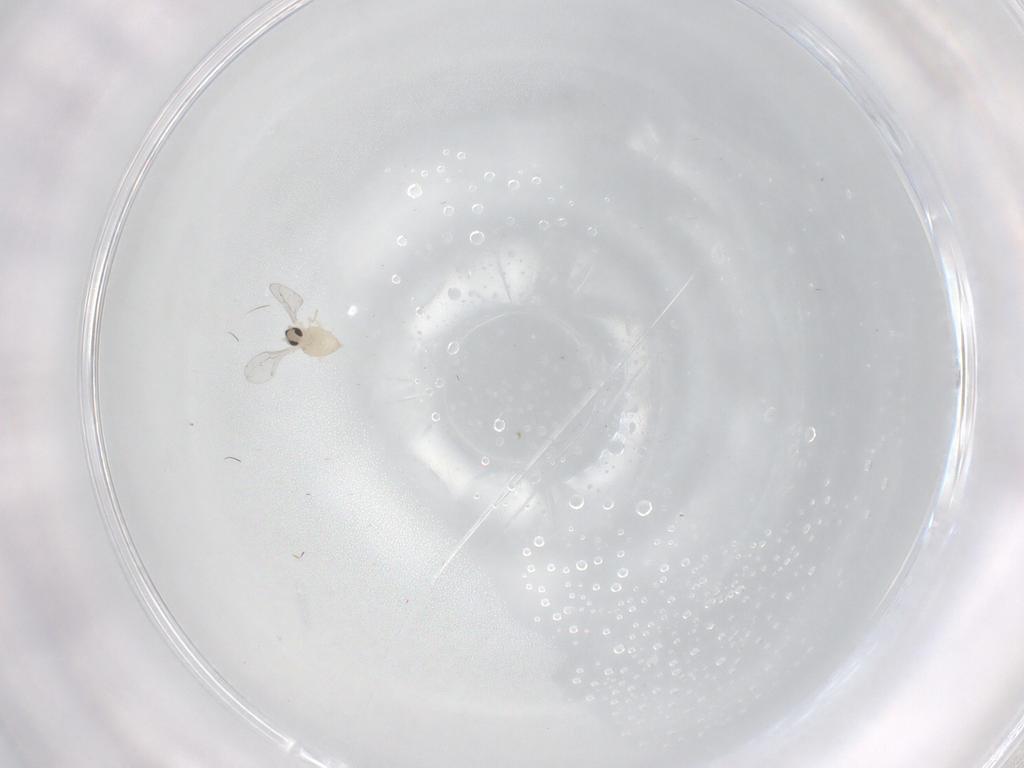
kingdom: Animalia
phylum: Arthropoda
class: Insecta
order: Diptera
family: Cecidomyiidae
